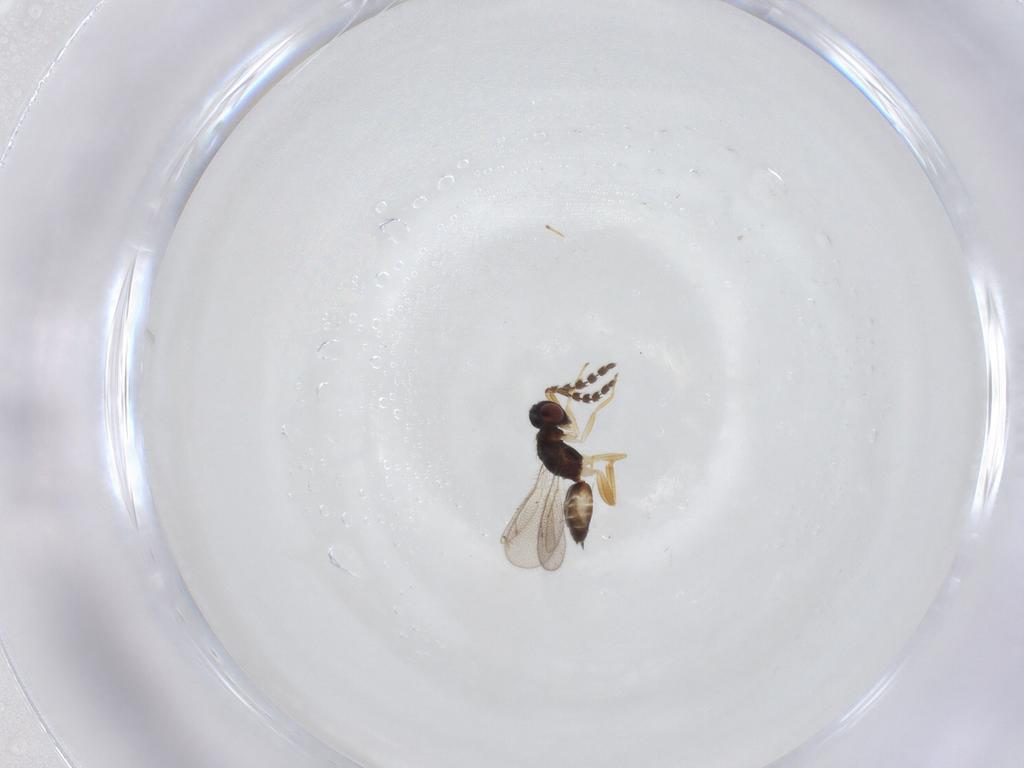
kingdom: Animalia
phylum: Arthropoda
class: Insecta
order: Hymenoptera
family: Eulophidae
